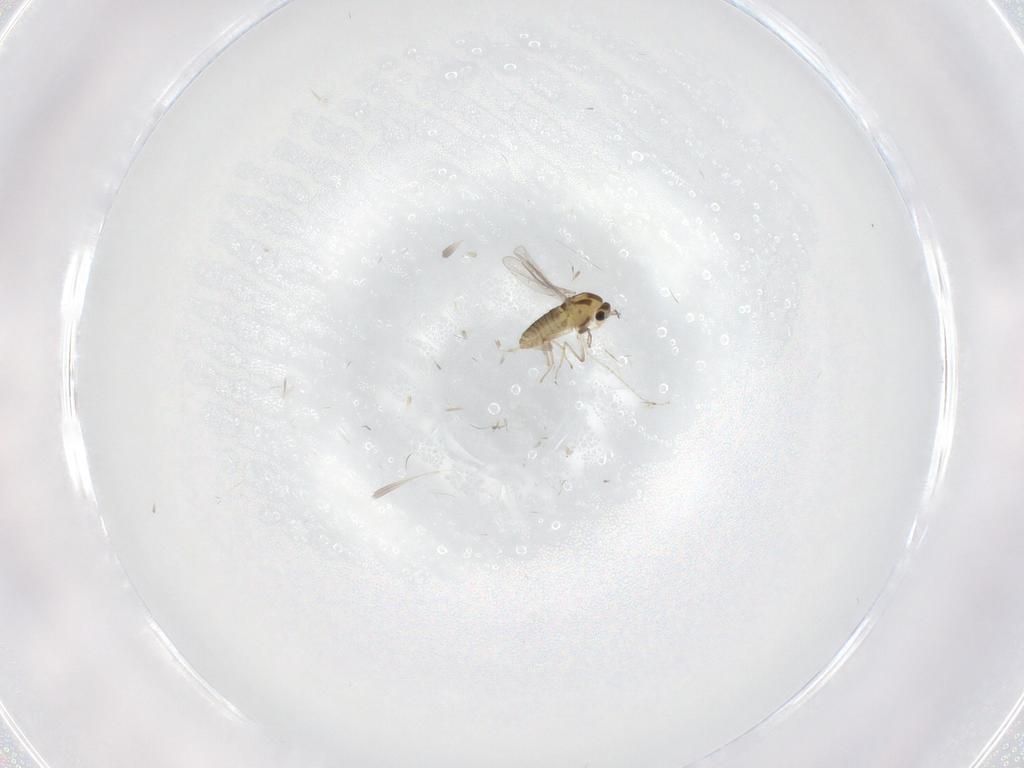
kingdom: Animalia
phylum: Arthropoda
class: Insecta
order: Diptera
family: Chironomidae
